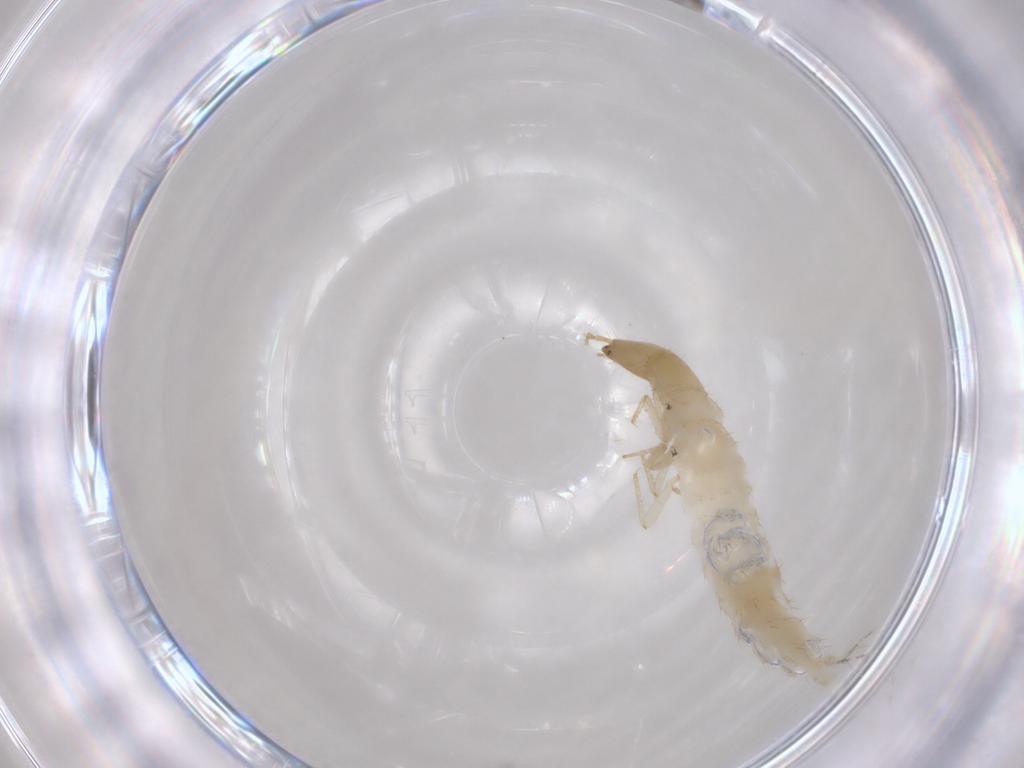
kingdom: Animalia
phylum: Arthropoda
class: Insecta
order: Coleoptera
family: Staphylinidae
